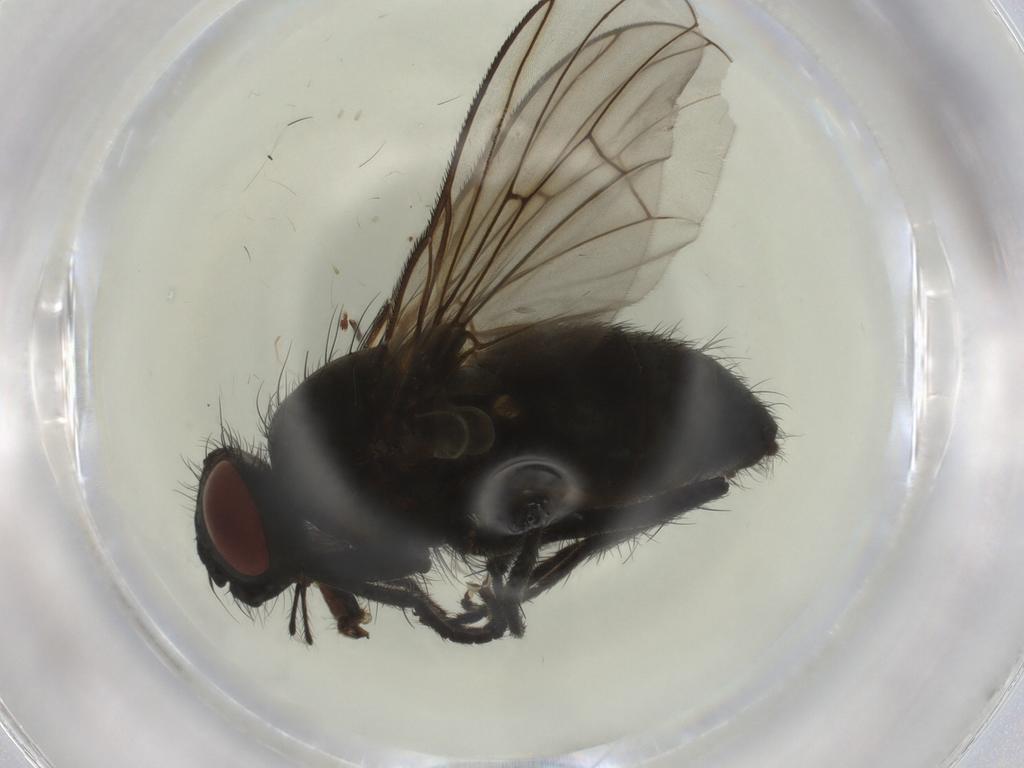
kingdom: Animalia
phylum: Arthropoda
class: Insecta
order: Diptera
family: Muscidae
